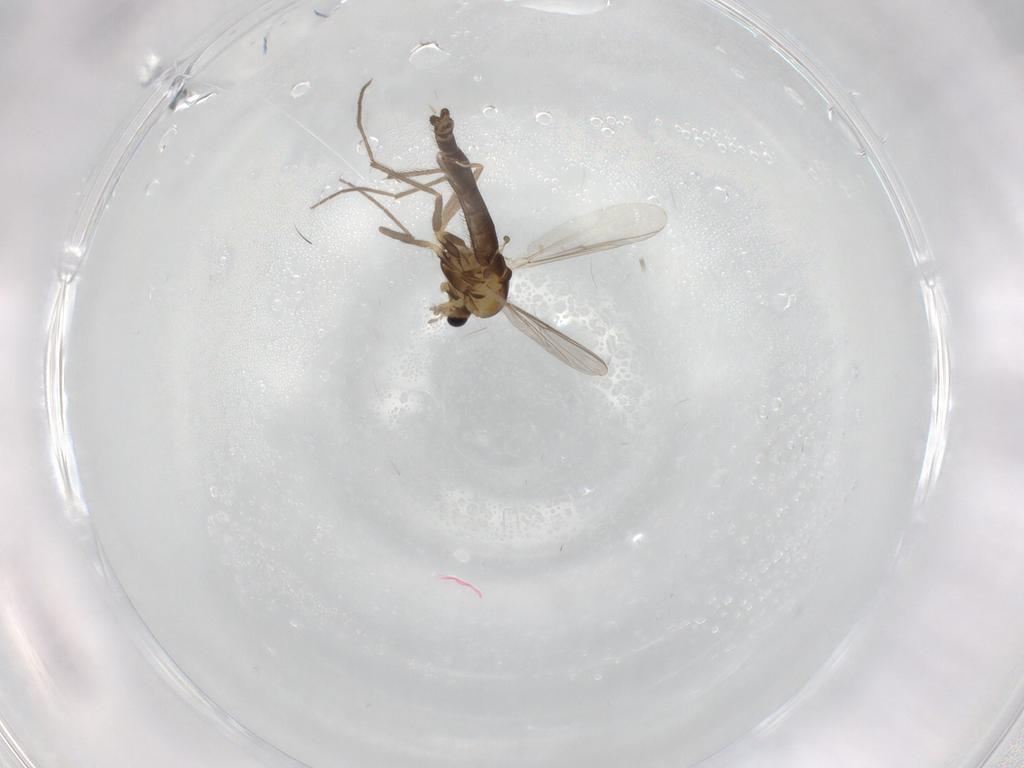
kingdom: Animalia
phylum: Arthropoda
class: Insecta
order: Diptera
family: Chironomidae
